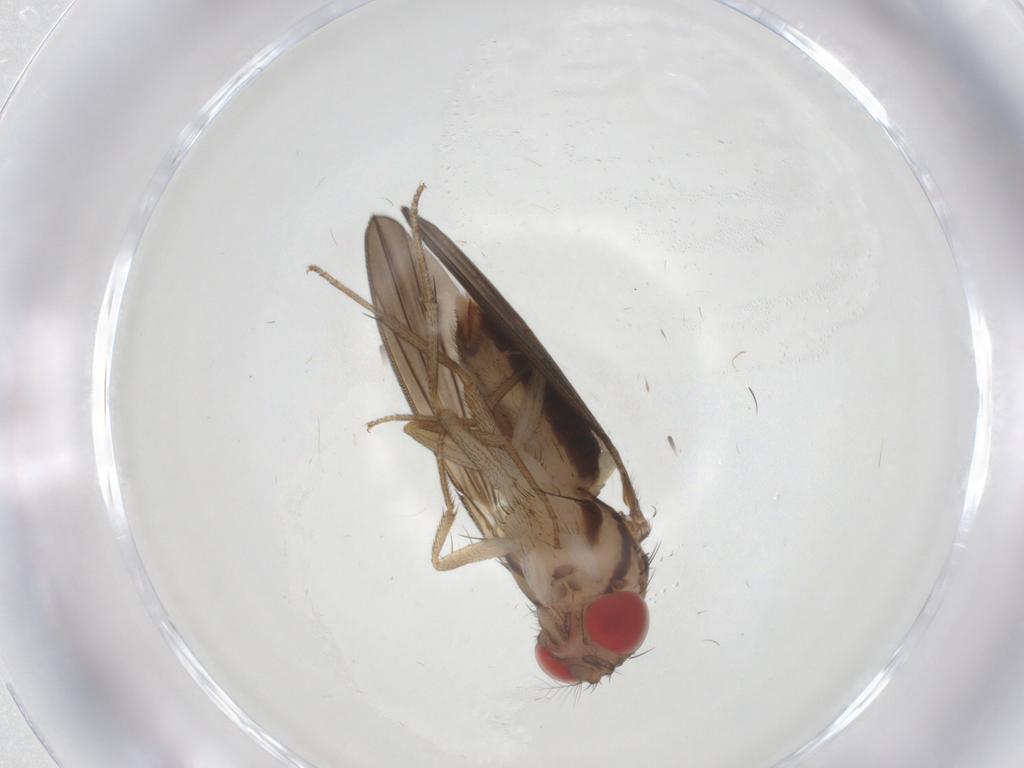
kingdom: Animalia
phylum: Arthropoda
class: Insecta
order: Diptera
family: Drosophilidae
